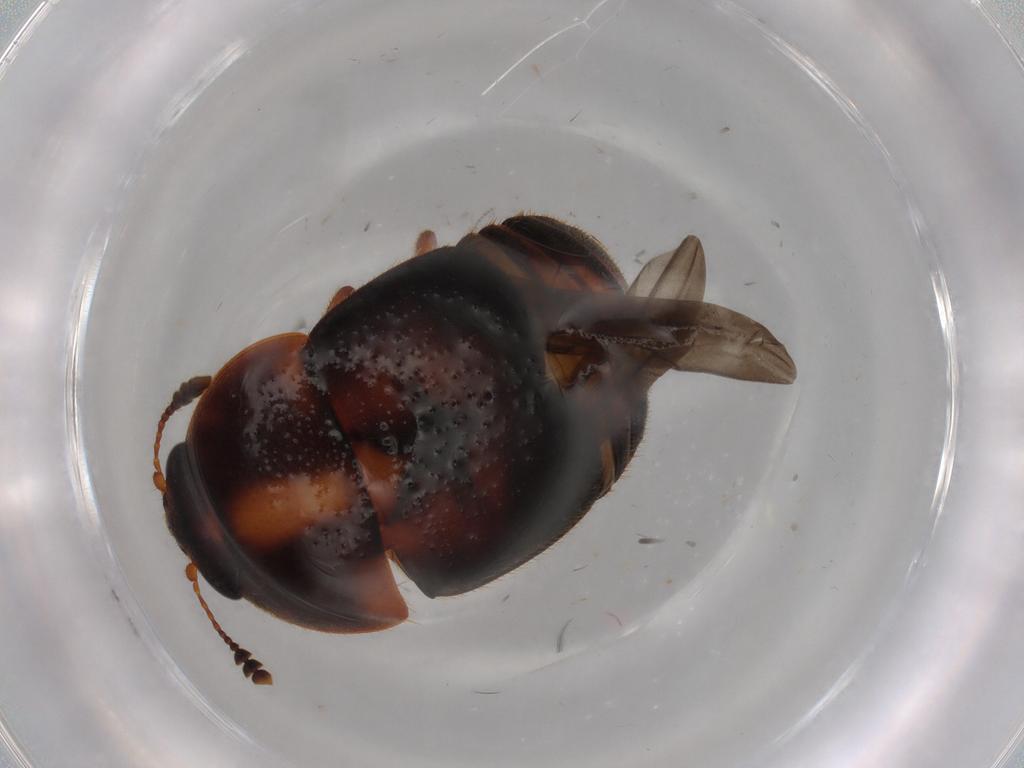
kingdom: Animalia
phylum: Arthropoda
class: Insecta
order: Coleoptera
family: Nitidulidae
